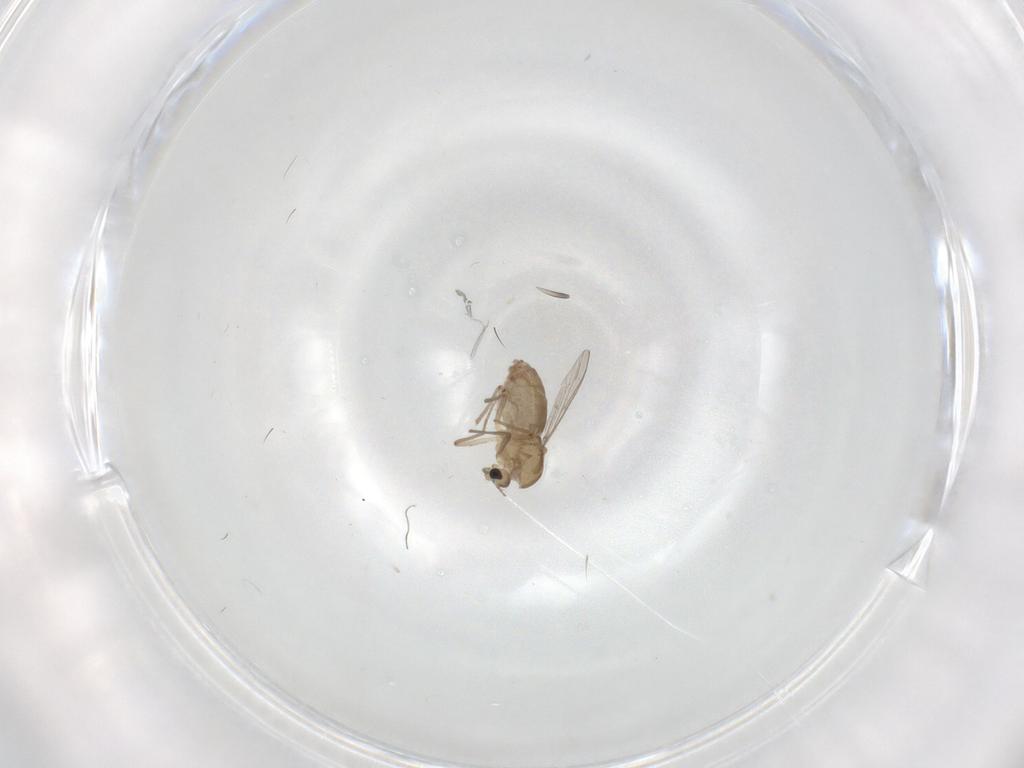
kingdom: Animalia
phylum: Arthropoda
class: Insecta
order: Diptera
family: Chironomidae
